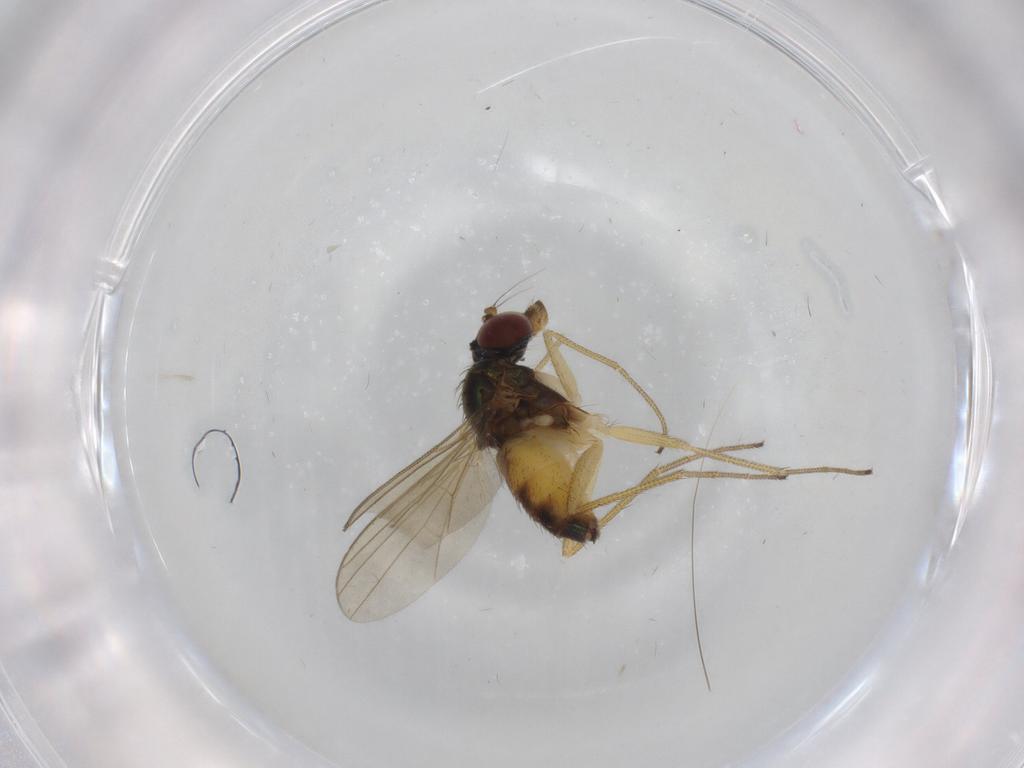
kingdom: Animalia
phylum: Arthropoda
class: Insecta
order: Diptera
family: Dolichopodidae
